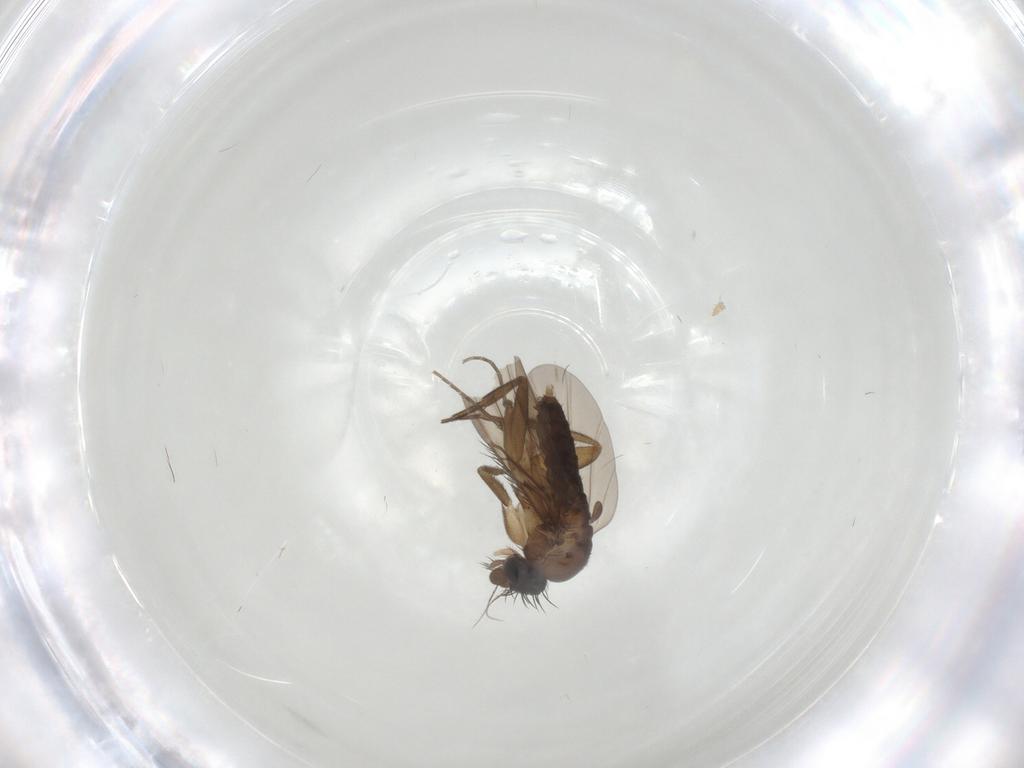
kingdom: Animalia
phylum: Arthropoda
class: Insecta
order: Diptera
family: Phoridae
